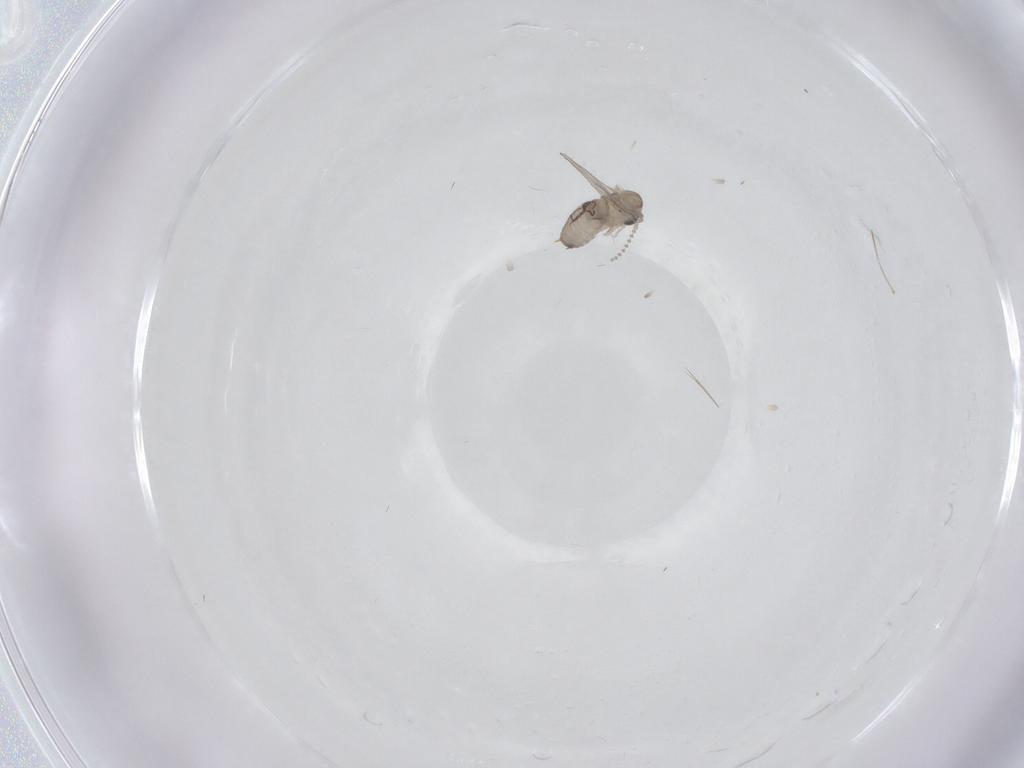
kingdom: Animalia
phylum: Arthropoda
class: Insecta
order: Diptera
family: Psychodidae
